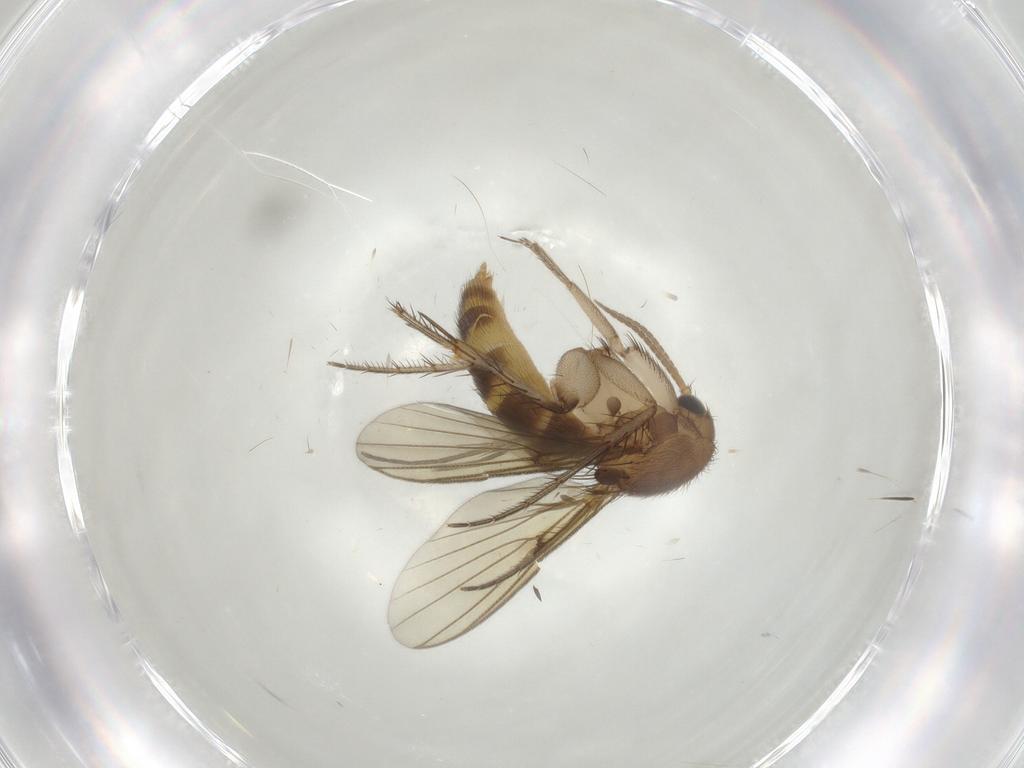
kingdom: Animalia
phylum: Arthropoda
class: Insecta
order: Diptera
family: Mycetophilidae
